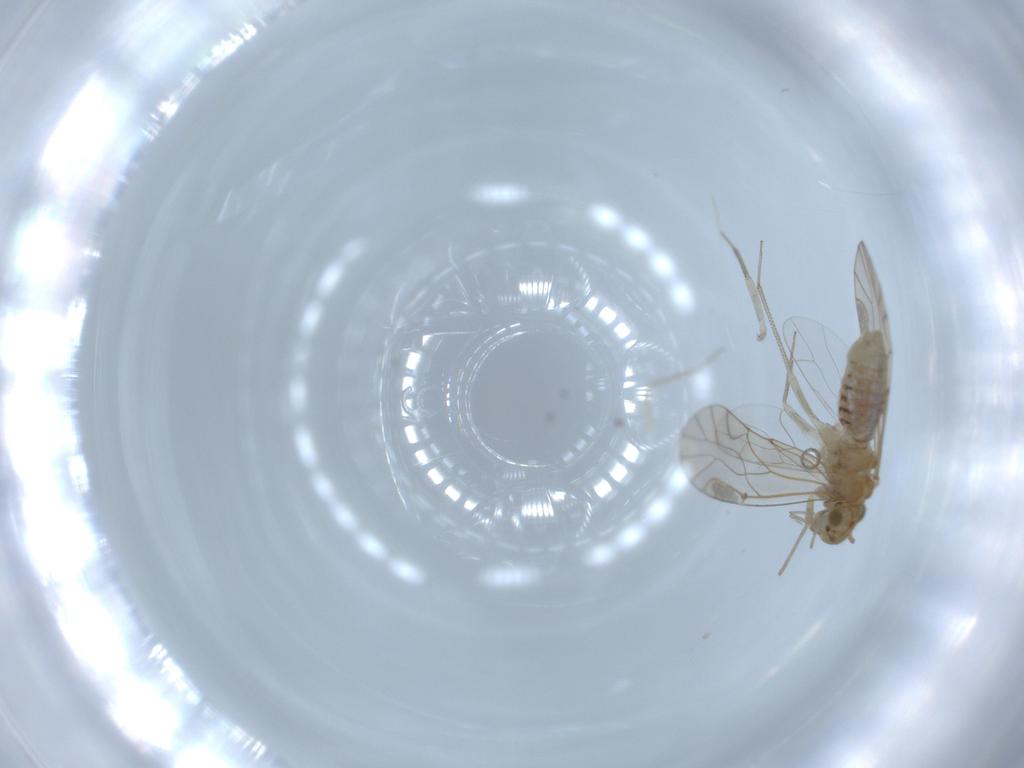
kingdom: Animalia
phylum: Arthropoda
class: Insecta
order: Psocodea
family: Lachesillidae
